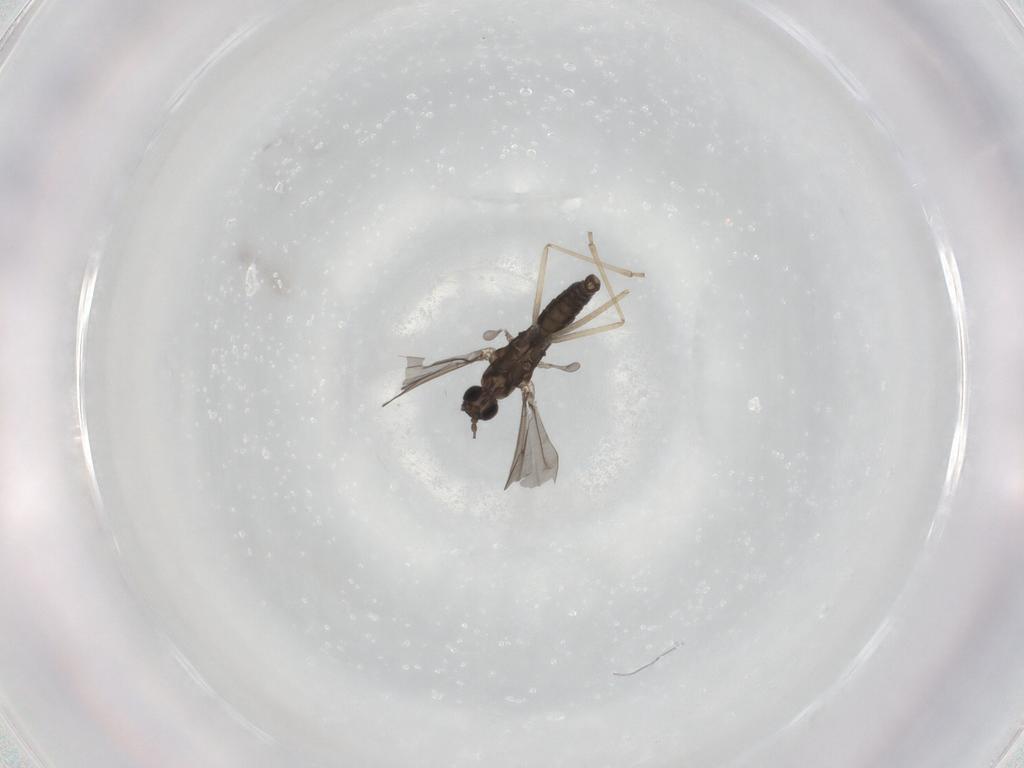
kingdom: Animalia
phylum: Arthropoda
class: Insecta
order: Diptera
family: Cecidomyiidae
